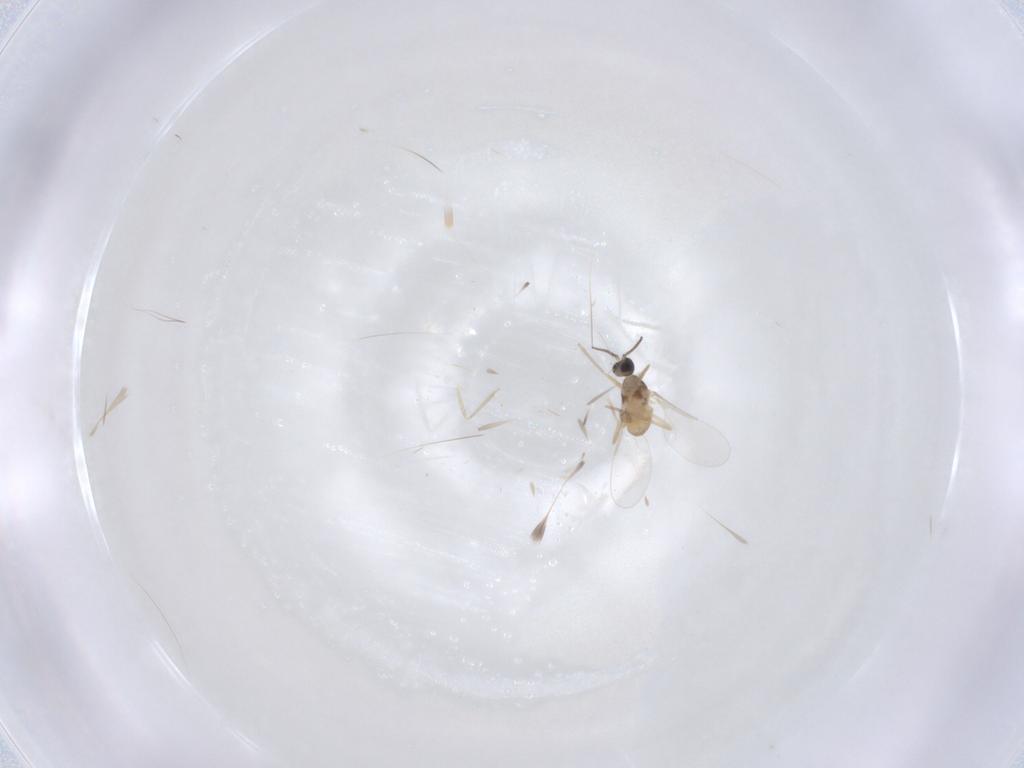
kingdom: Animalia
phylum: Arthropoda
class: Insecta
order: Diptera
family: Cecidomyiidae
